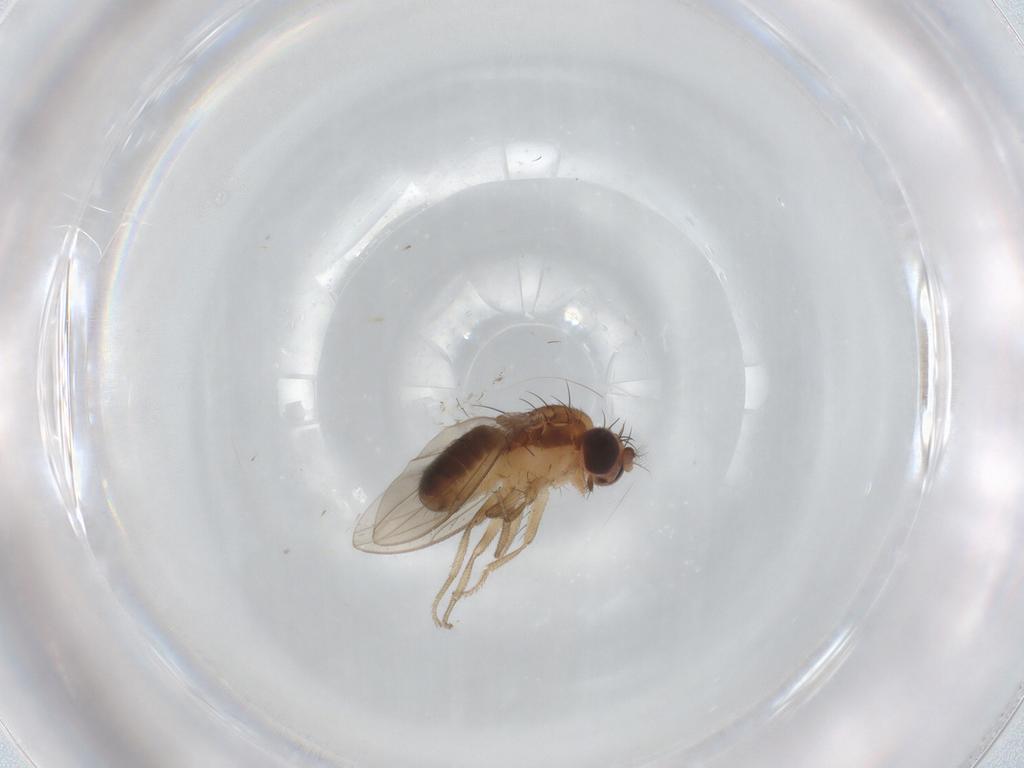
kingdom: Animalia
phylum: Arthropoda
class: Insecta
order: Diptera
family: Drosophilidae
